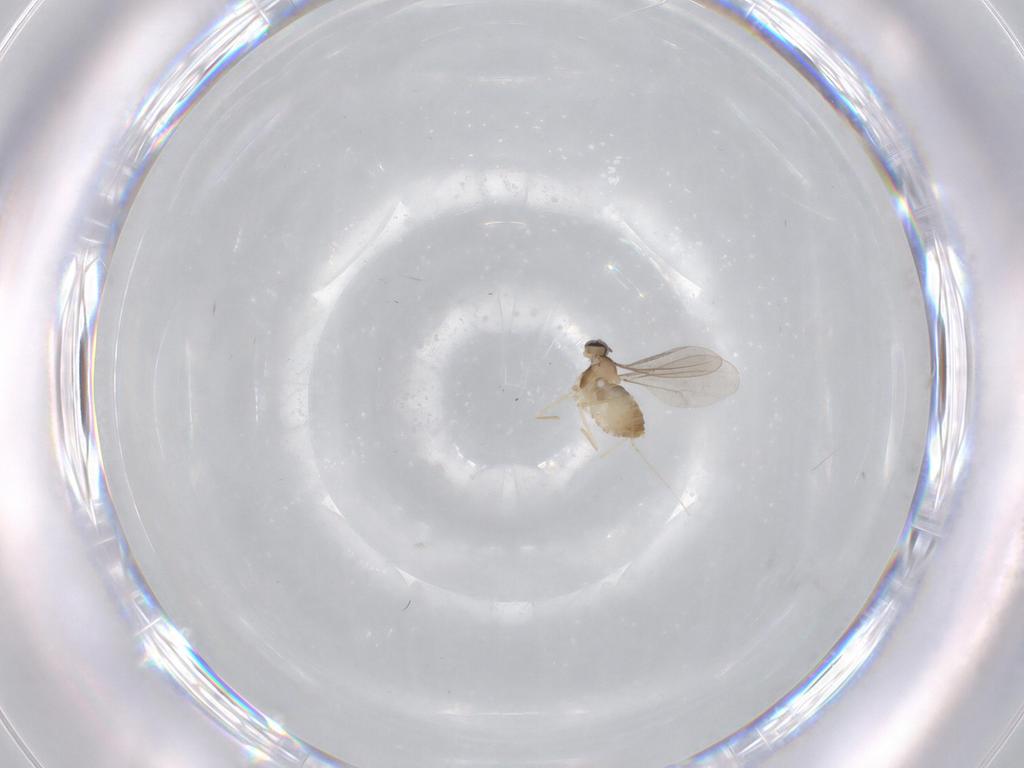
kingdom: Animalia
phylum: Arthropoda
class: Insecta
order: Diptera
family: Cecidomyiidae
